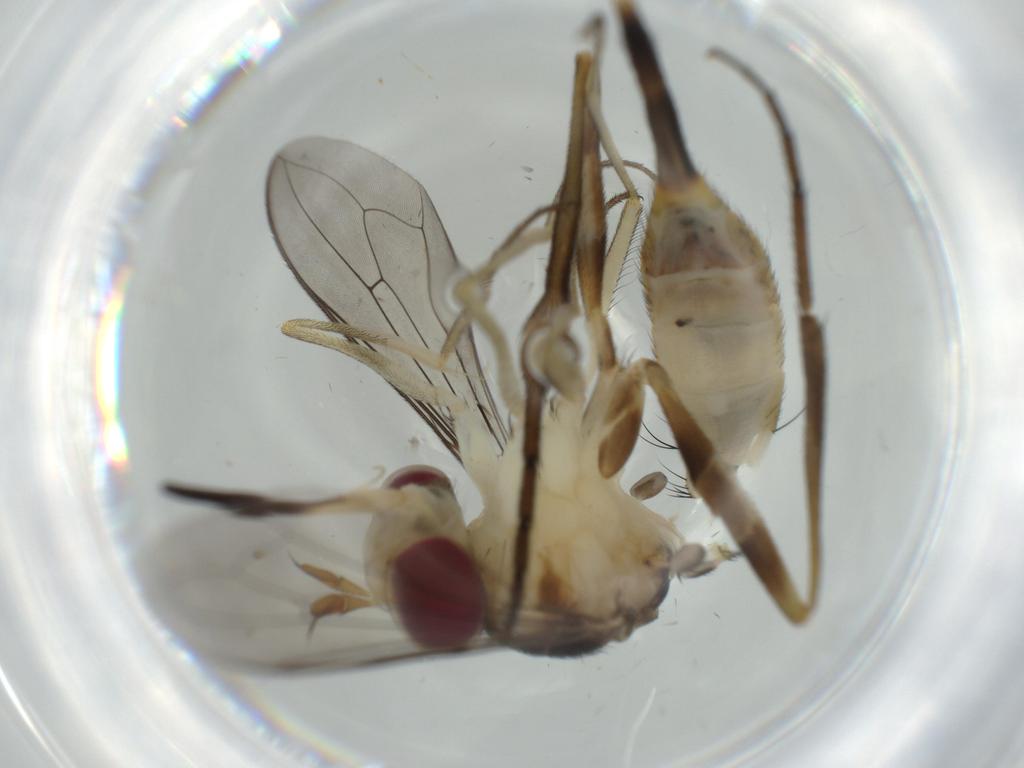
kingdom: Animalia
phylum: Arthropoda
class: Insecta
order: Diptera
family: Conopidae
